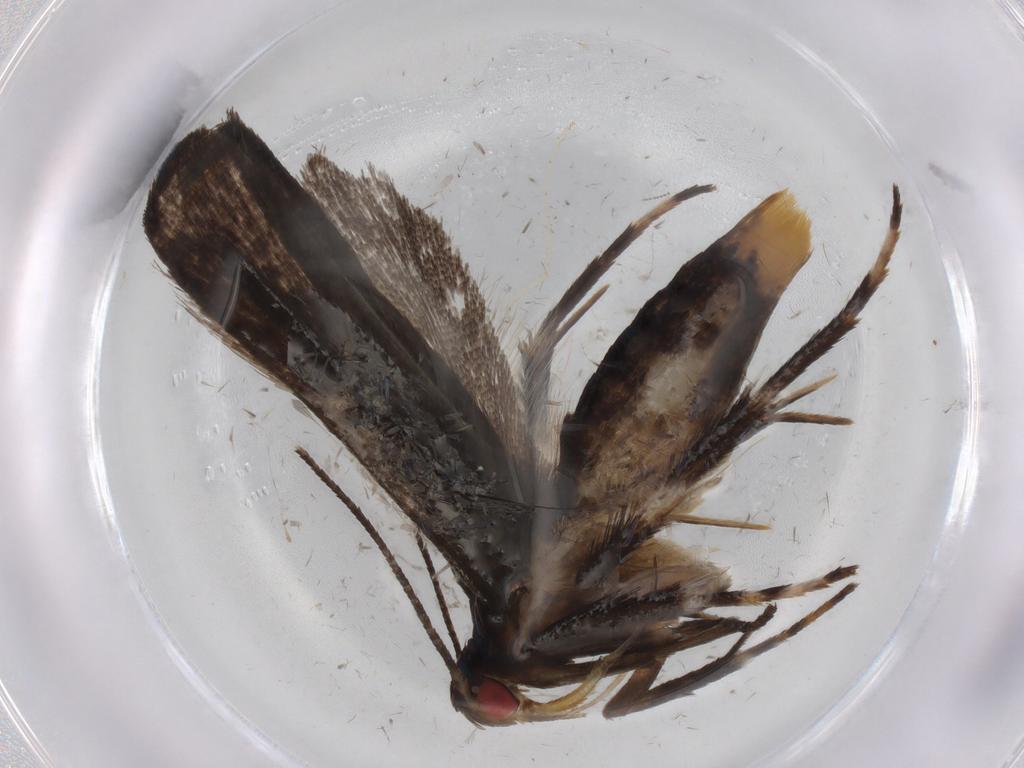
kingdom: Animalia
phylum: Arthropoda
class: Insecta
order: Lepidoptera
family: Gelechiidae
